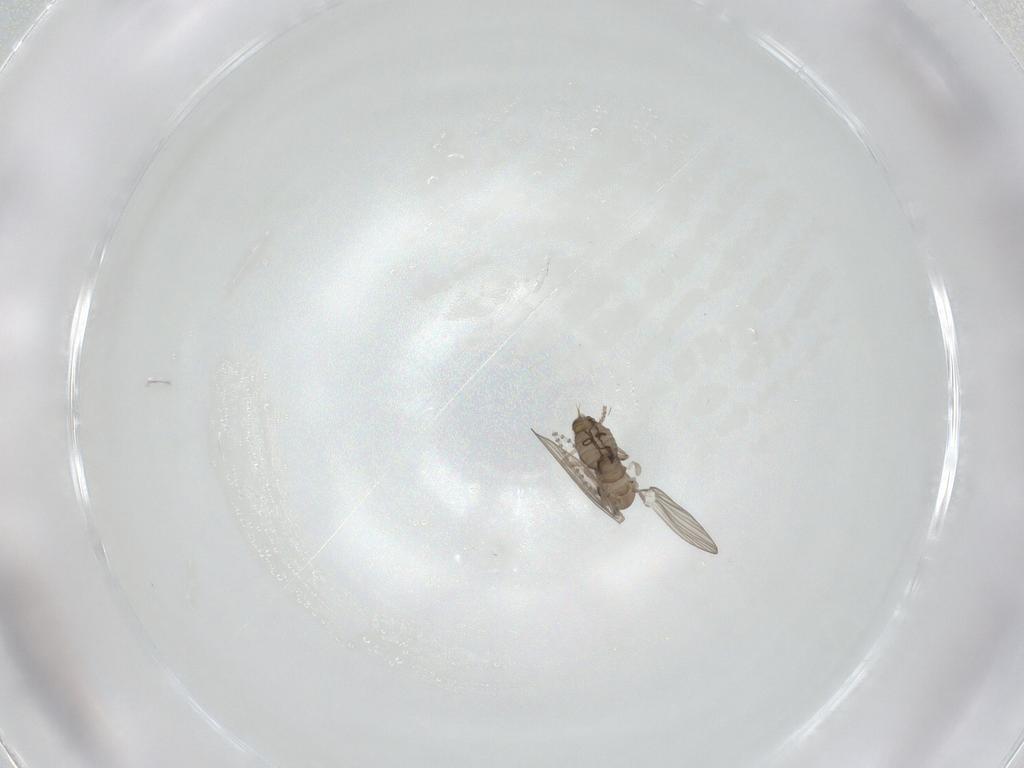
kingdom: Animalia
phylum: Arthropoda
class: Insecta
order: Diptera
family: Psychodidae
